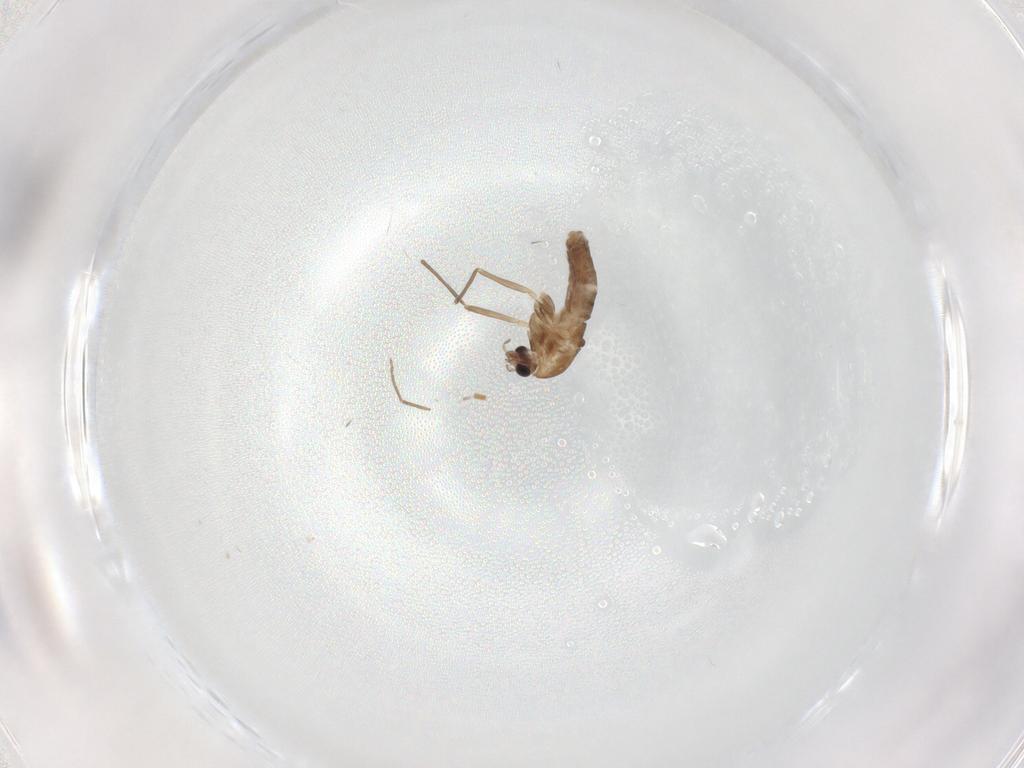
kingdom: Animalia
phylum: Arthropoda
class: Insecta
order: Diptera
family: Chironomidae
